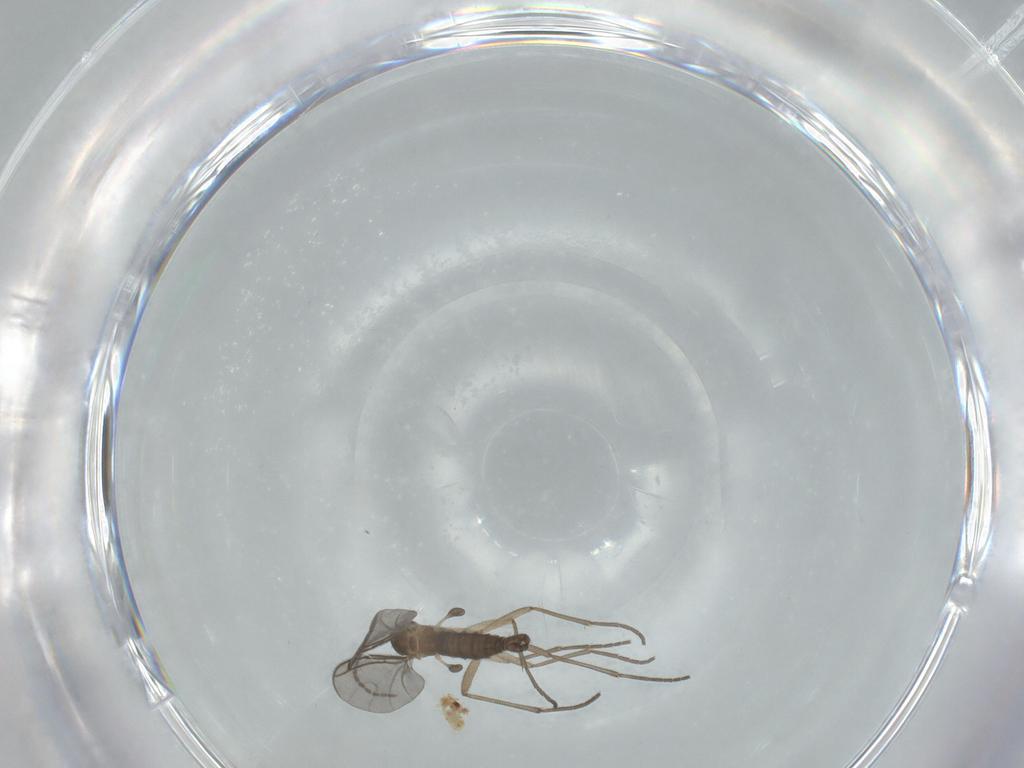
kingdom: Animalia
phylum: Arthropoda
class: Insecta
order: Diptera
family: Sciaridae
